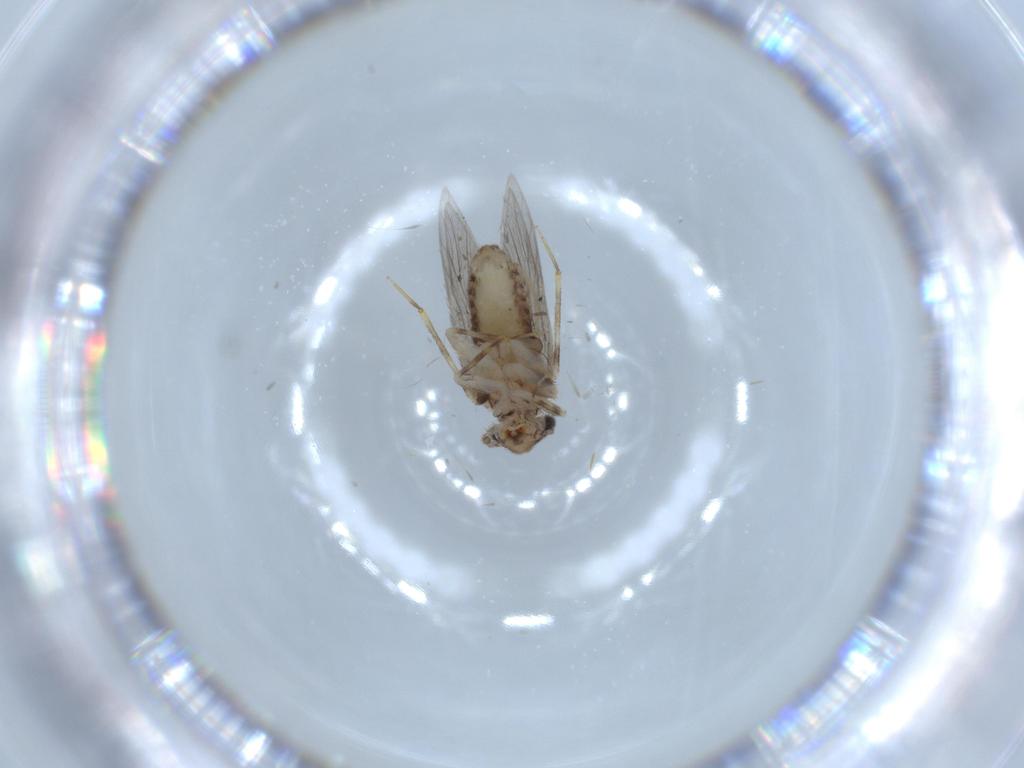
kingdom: Animalia
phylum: Arthropoda
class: Insecta
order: Psocodea
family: Lepidopsocidae
